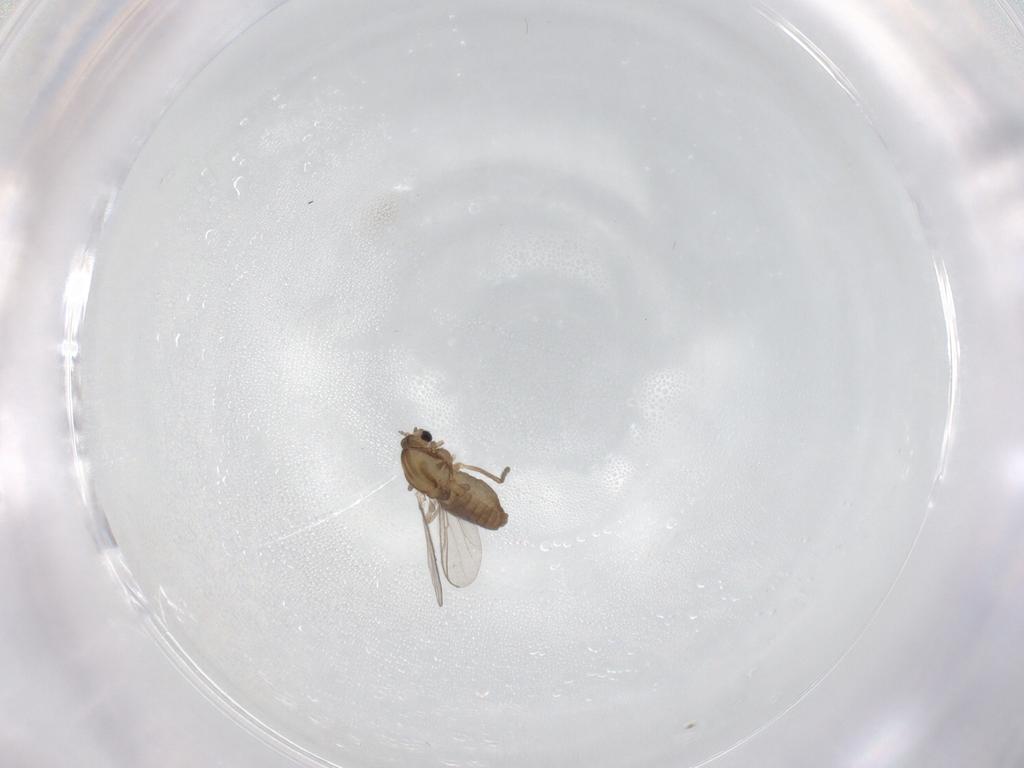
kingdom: Animalia
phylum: Arthropoda
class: Insecta
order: Diptera
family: Chironomidae
